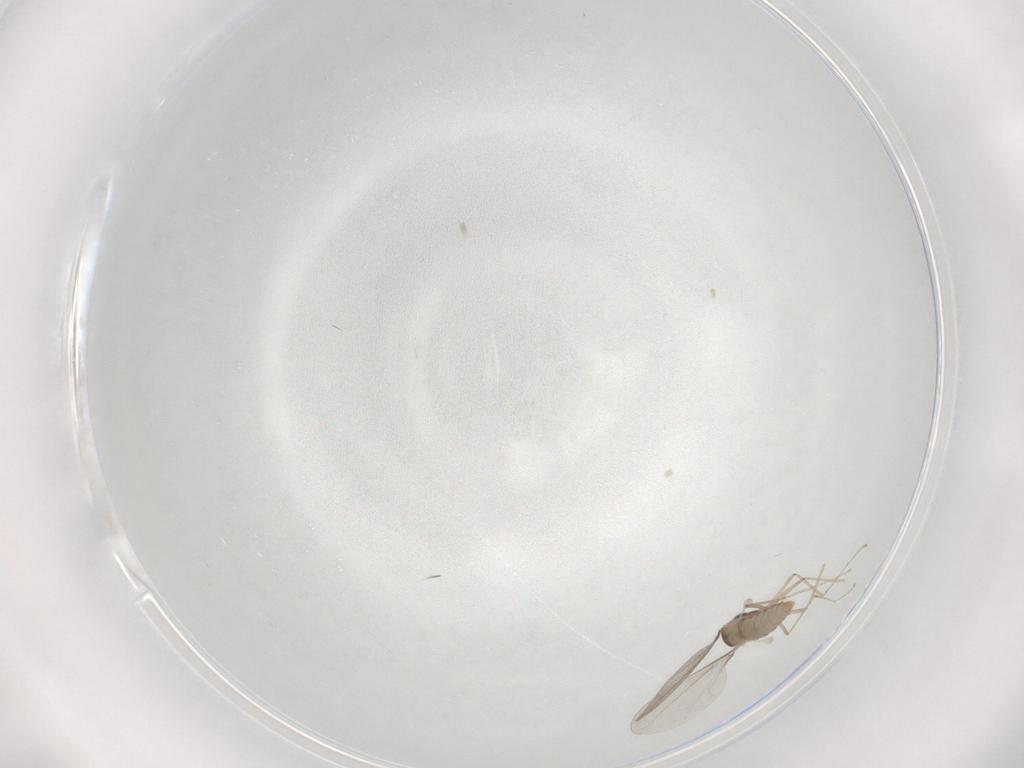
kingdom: Animalia
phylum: Arthropoda
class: Insecta
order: Diptera
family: Cecidomyiidae
